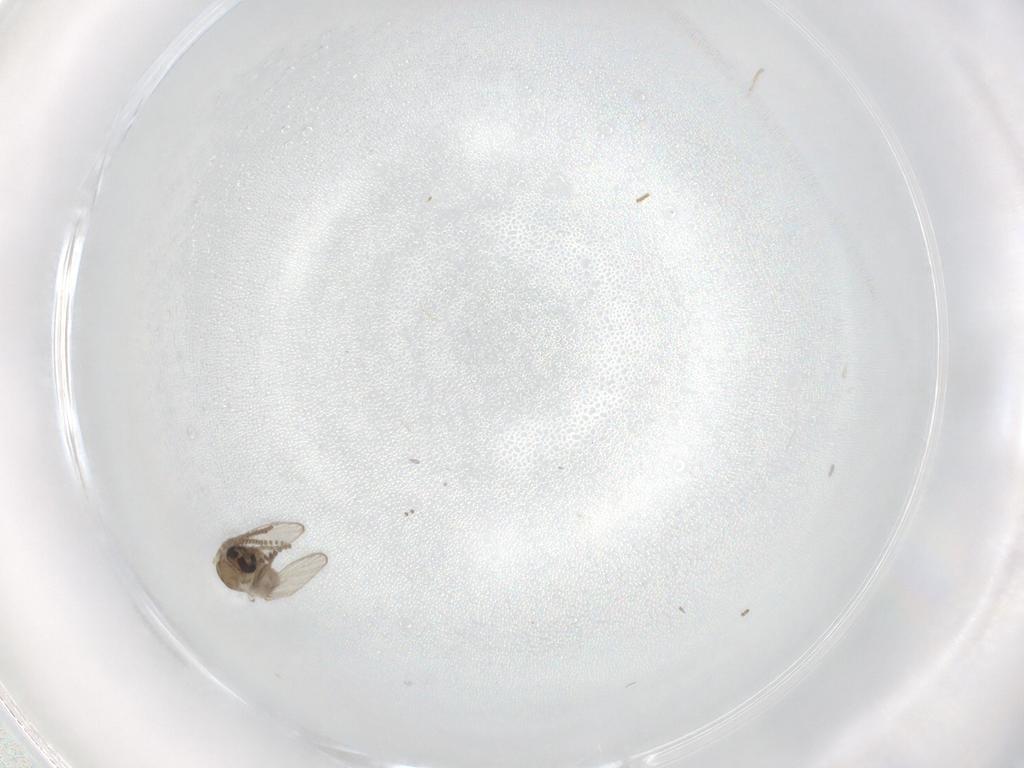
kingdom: Animalia
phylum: Arthropoda
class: Insecta
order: Diptera
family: Psychodidae
